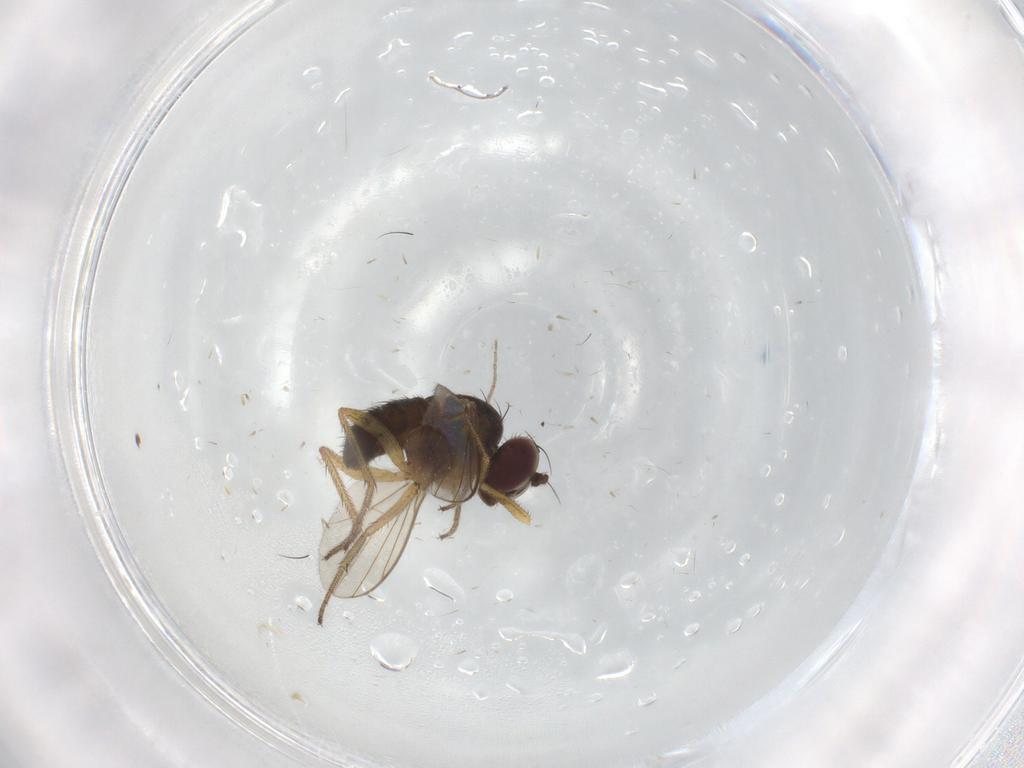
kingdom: Animalia
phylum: Arthropoda
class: Insecta
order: Diptera
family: Chironomidae
